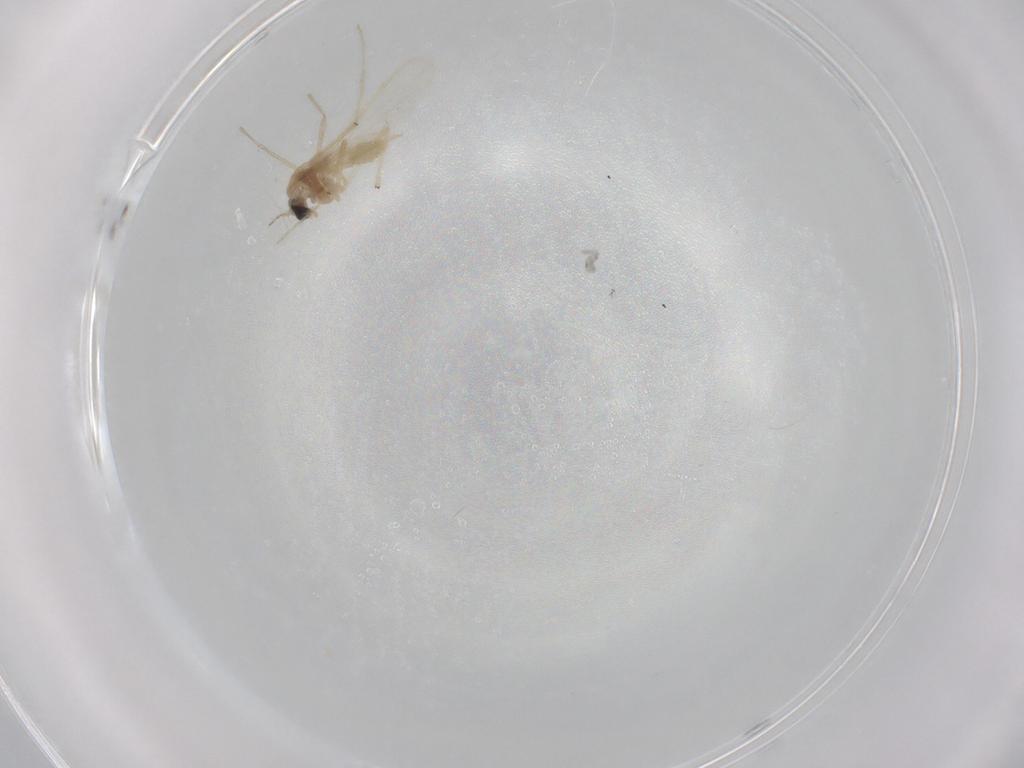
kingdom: Animalia
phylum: Arthropoda
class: Insecta
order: Diptera
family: Chironomidae
